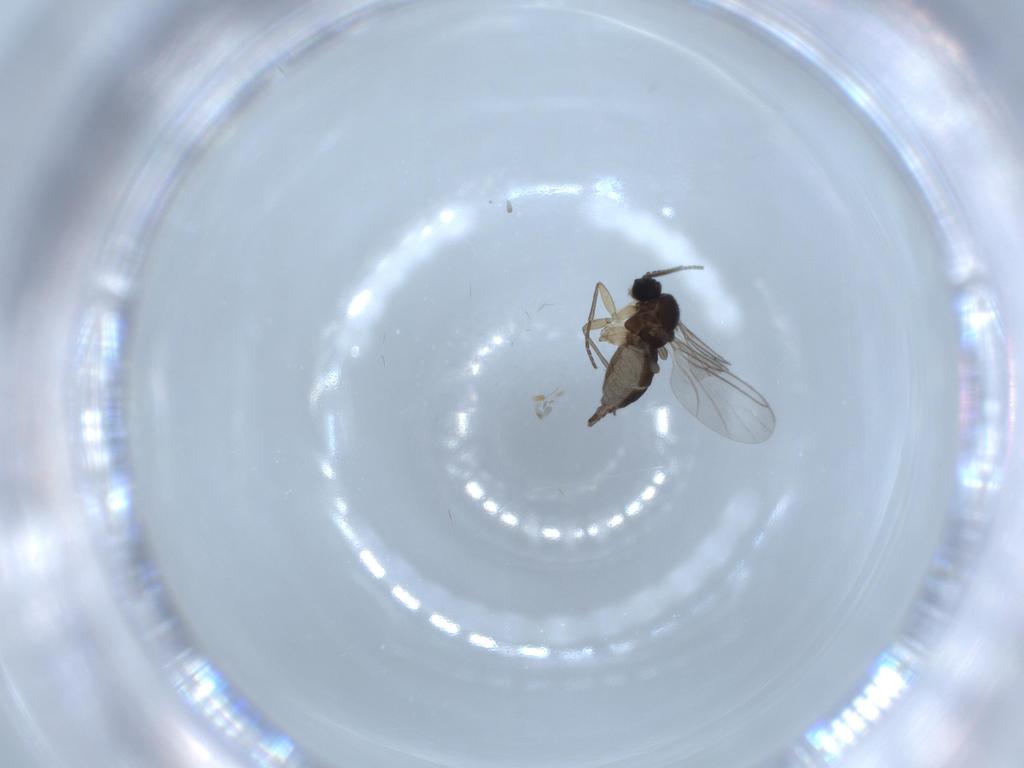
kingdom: Animalia
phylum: Arthropoda
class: Insecta
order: Diptera
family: Sciaridae
